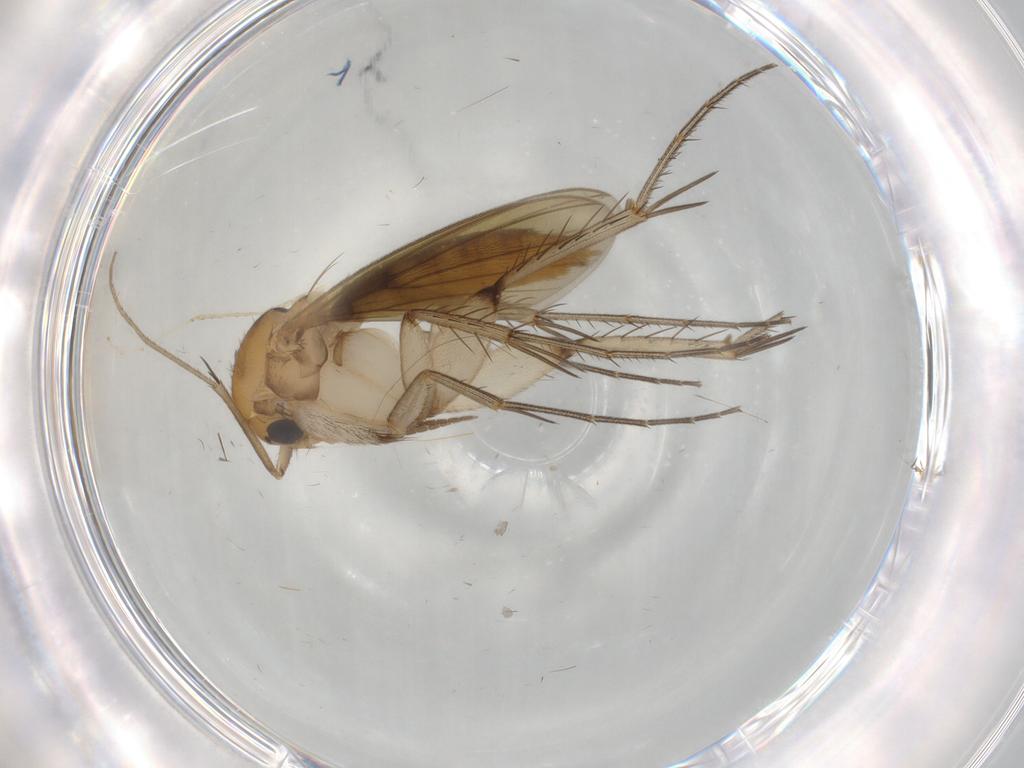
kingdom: Animalia
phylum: Arthropoda
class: Insecta
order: Diptera
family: Mycetophilidae
